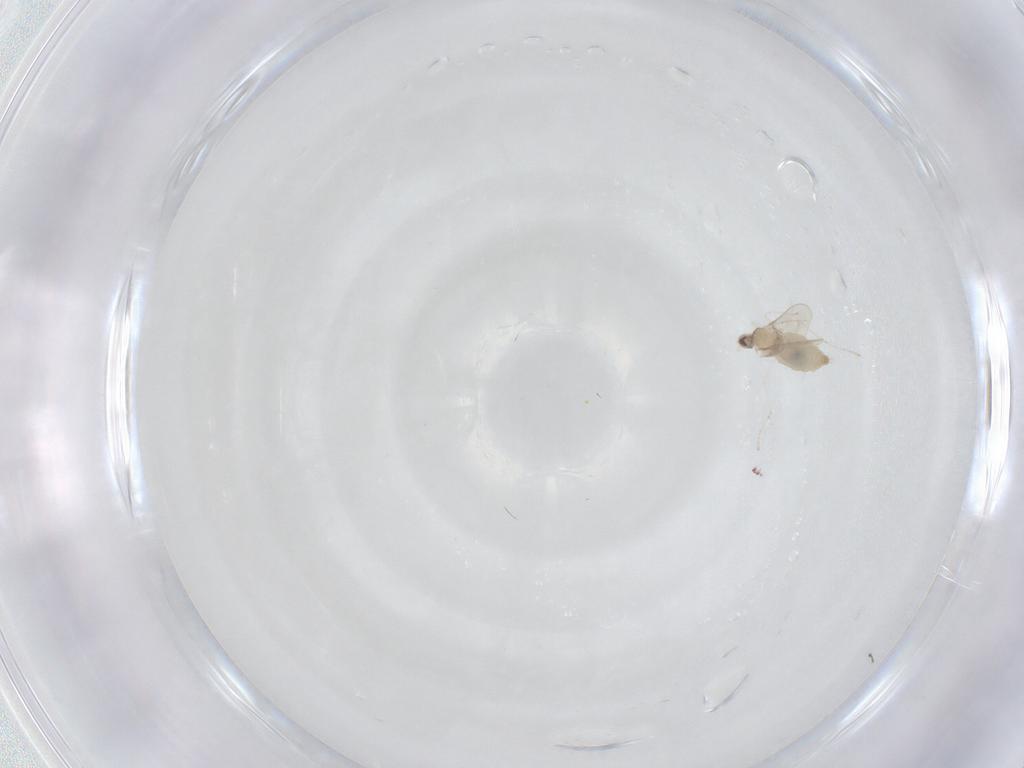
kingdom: Animalia
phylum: Arthropoda
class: Insecta
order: Diptera
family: Cecidomyiidae
